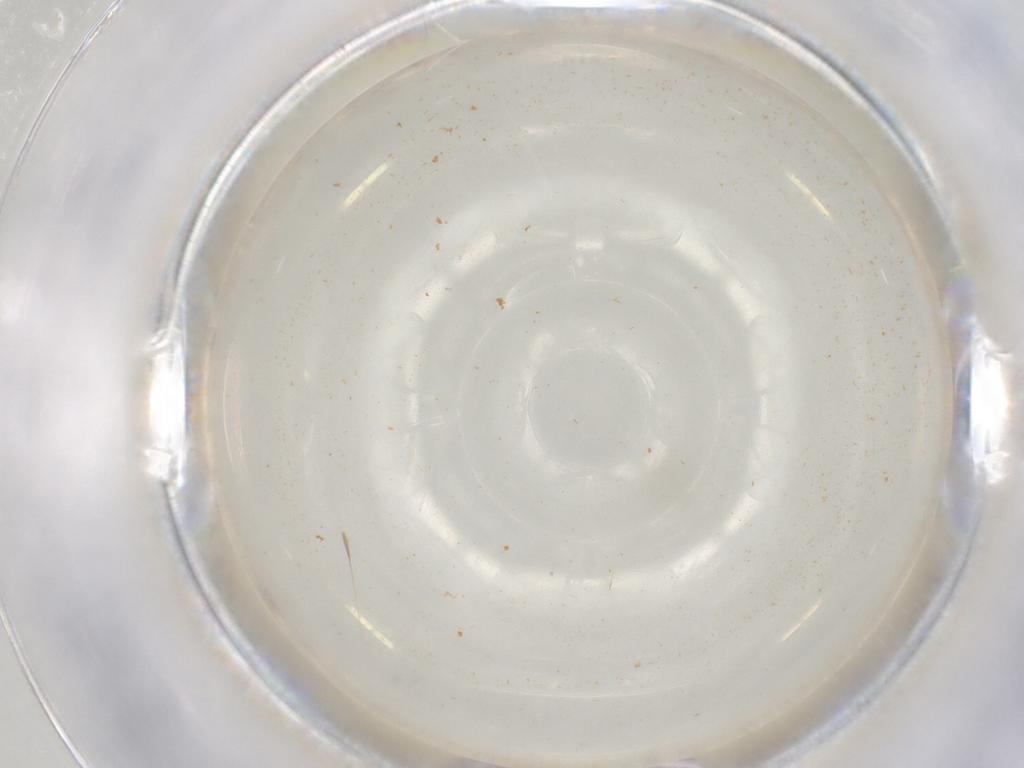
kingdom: Animalia
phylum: Arthropoda
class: Insecta
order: Diptera
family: Sciaridae
